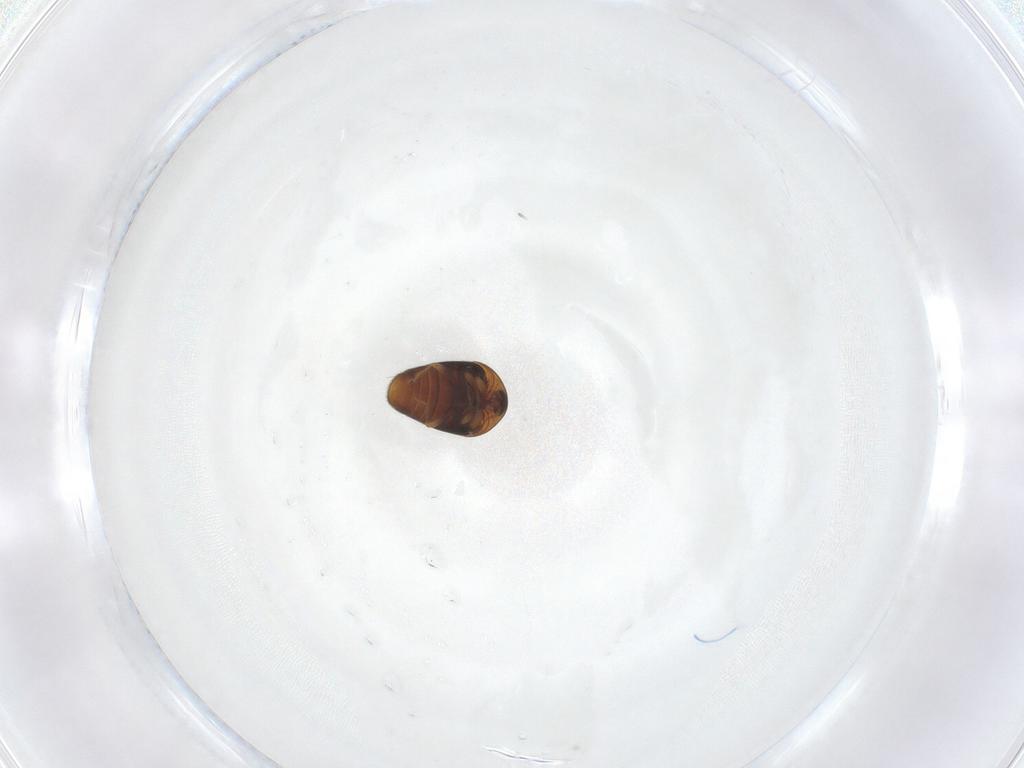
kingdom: Animalia
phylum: Arthropoda
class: Insecta
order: Coleoptera
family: Corylophidae
